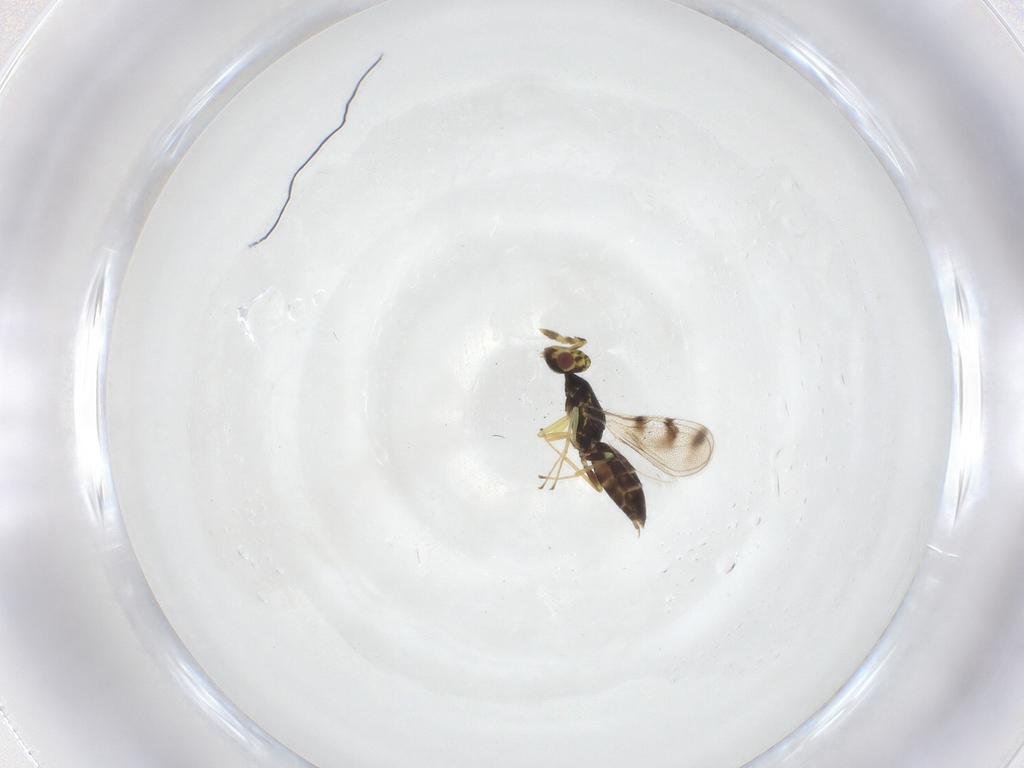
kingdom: Animalia
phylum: Arthropoda
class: Insecta
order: Hymenoptera
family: Eulophidae
